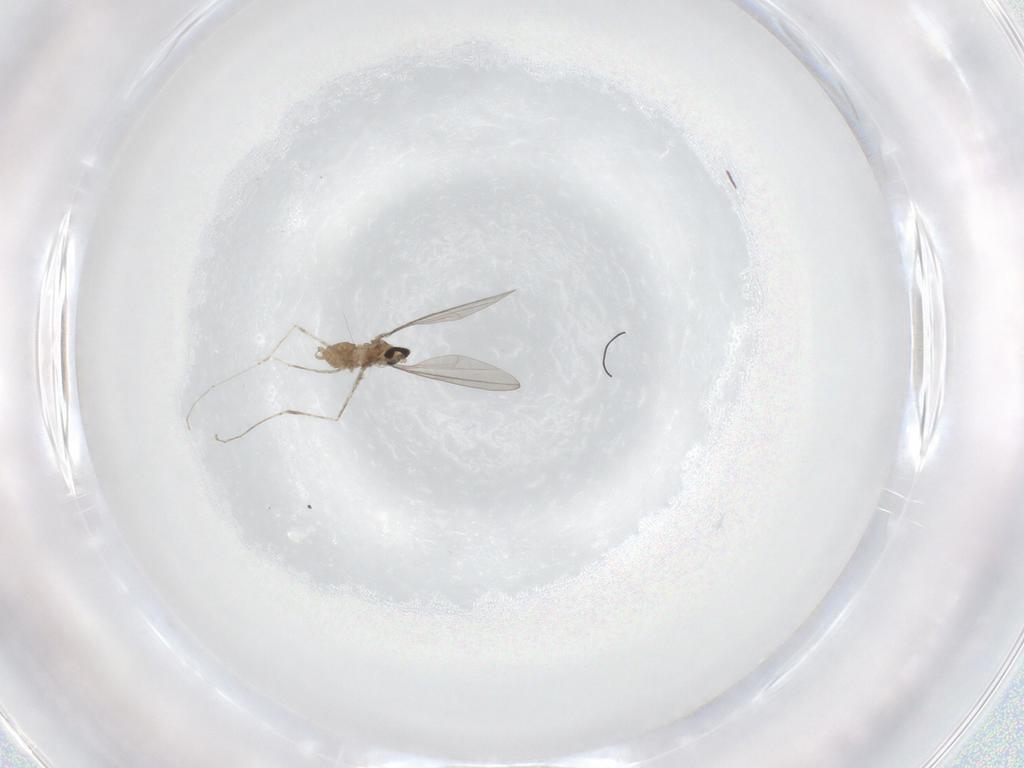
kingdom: Animalia
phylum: Arthropoda
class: Insecta
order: Diptera
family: Cecidomyiidae
